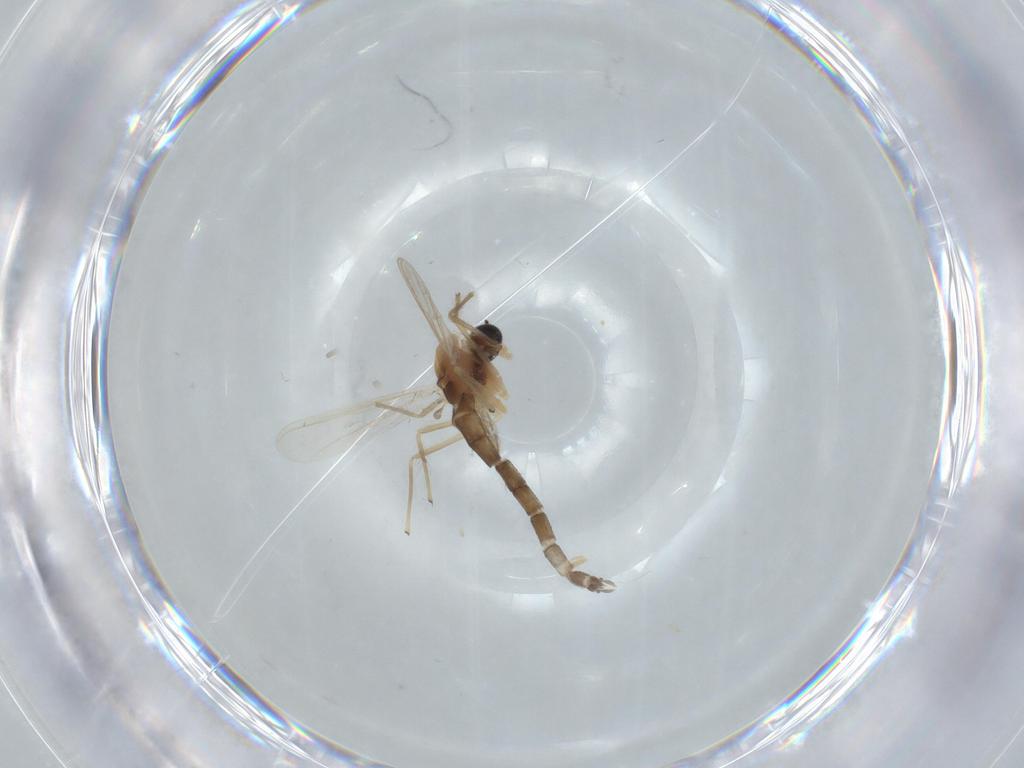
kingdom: Animalia
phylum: Arthropoda
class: Insecta
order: Diptera
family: Chironomidae
